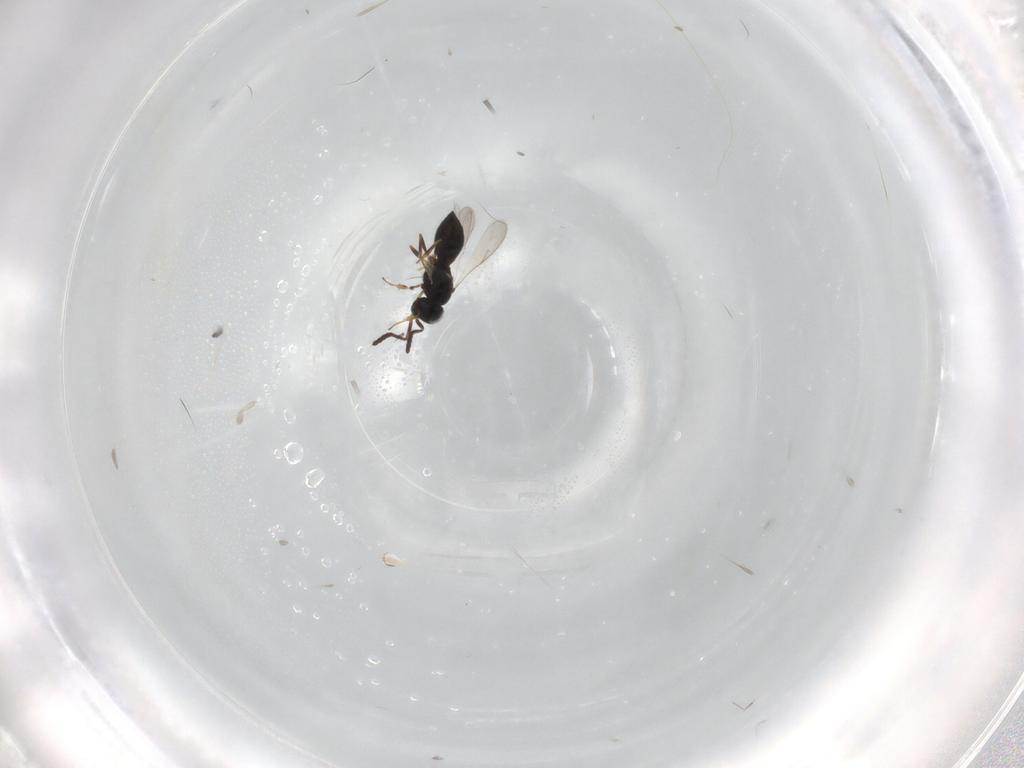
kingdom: Animalia
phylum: Arthropoda
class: Insecta
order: Hymenoptera
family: Scelionidae
